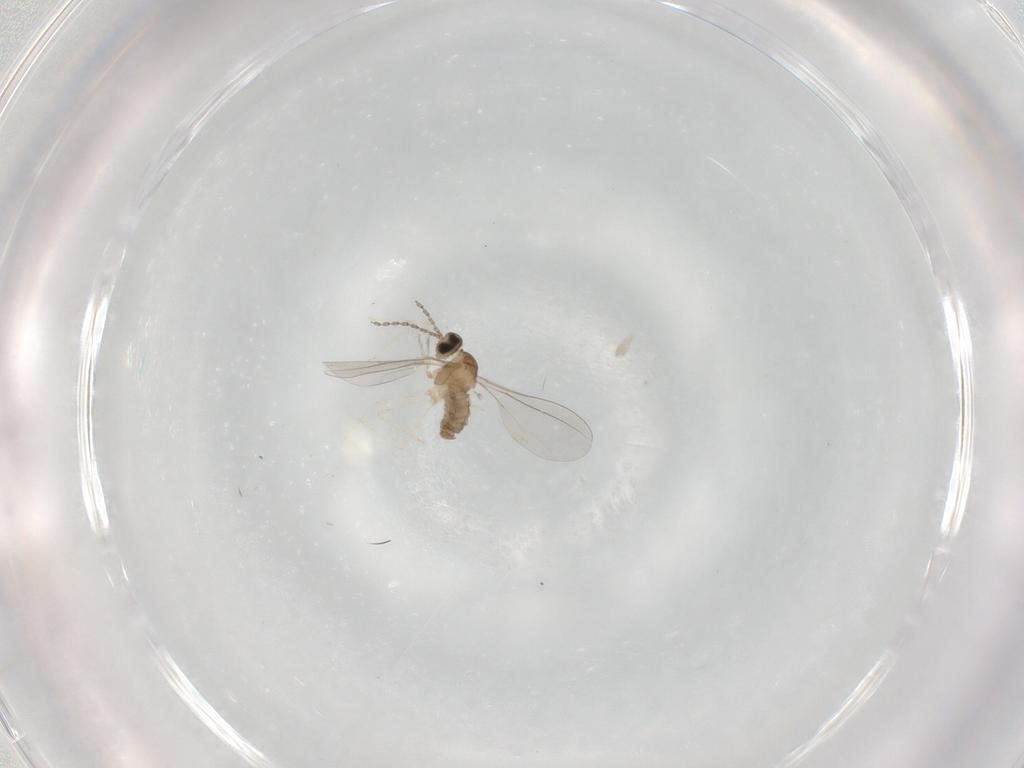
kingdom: Animalia
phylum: Arthropoda
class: Insecta
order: Diptera
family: Cecidomyiidae
